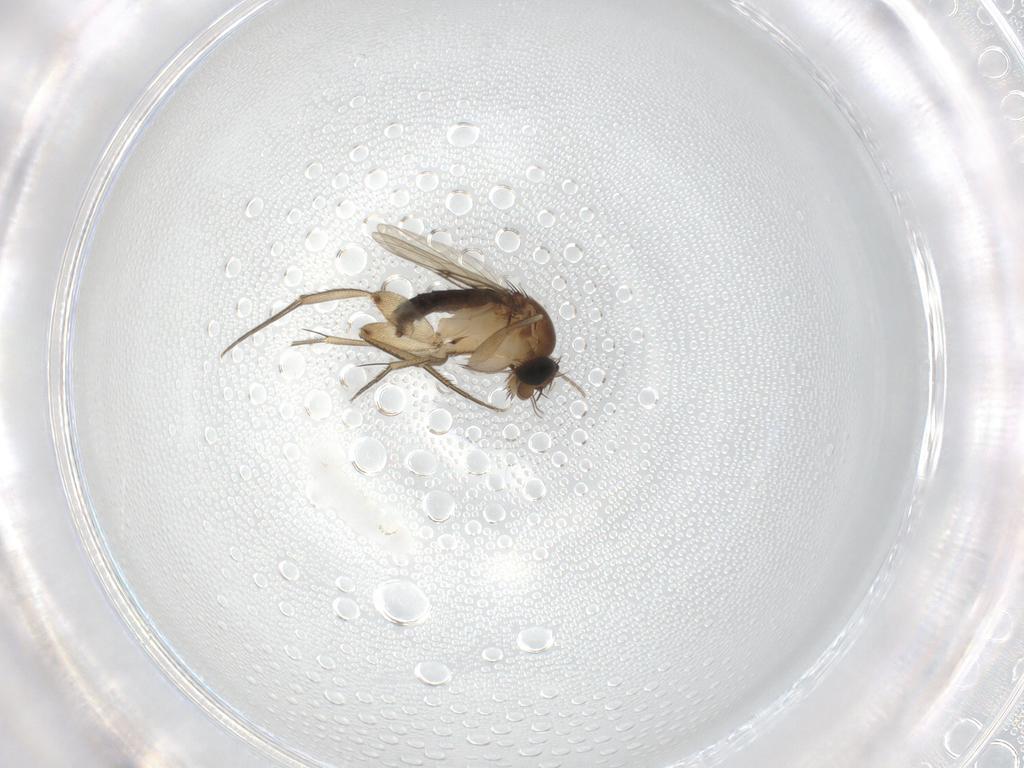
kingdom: Animalia
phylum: Arthropoda
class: Insecta
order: Diptera
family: Phoridae
